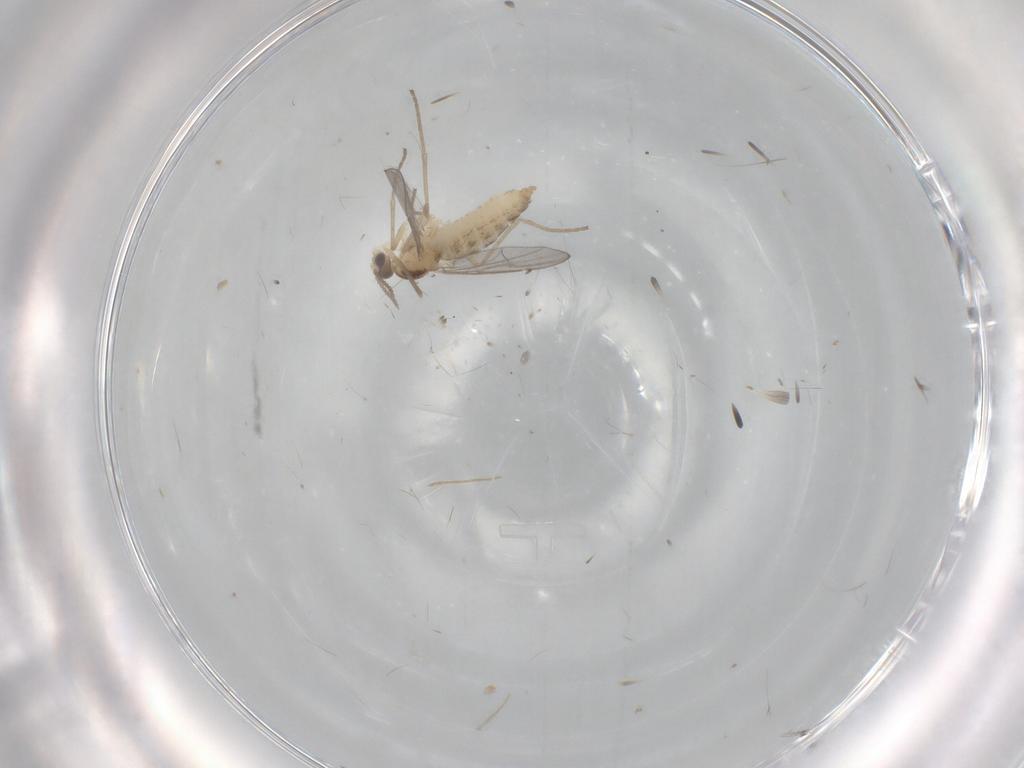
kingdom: Animalia
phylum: Arthropoda
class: Insecta
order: Diptera
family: Cecidomyiidae
